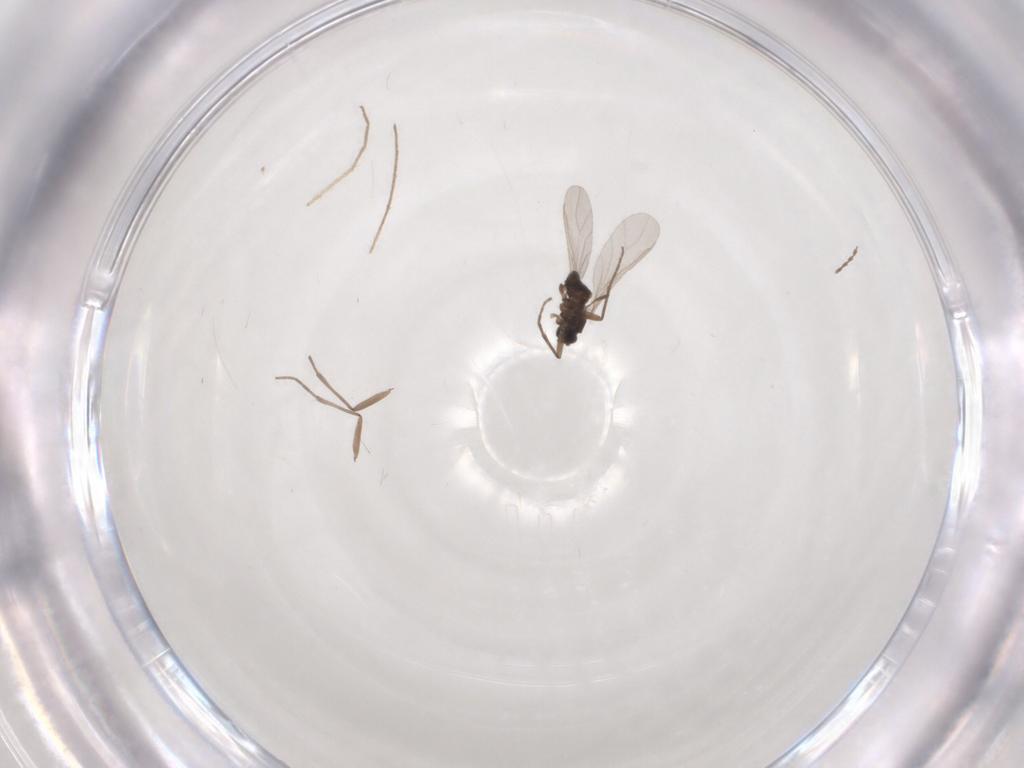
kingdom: Animalia
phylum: Arthropoda
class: Insecta
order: Diptera
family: Sciaridae
